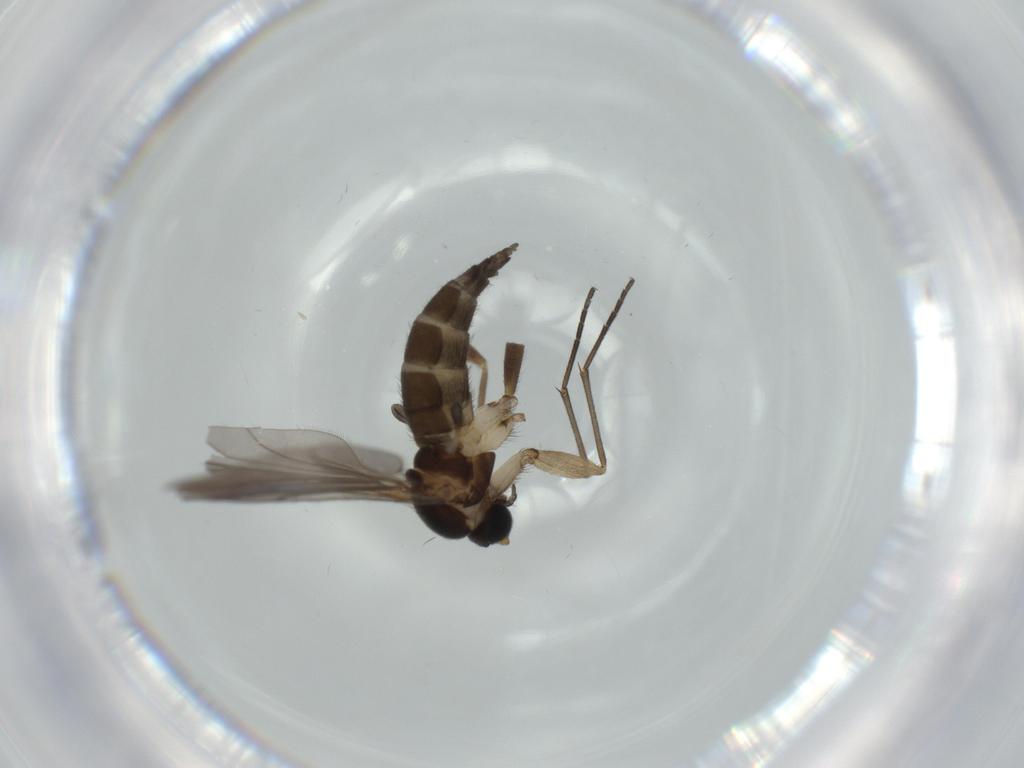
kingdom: Animalia
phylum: Arthropoda
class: Insecta
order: Diptera
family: Sciaridae
